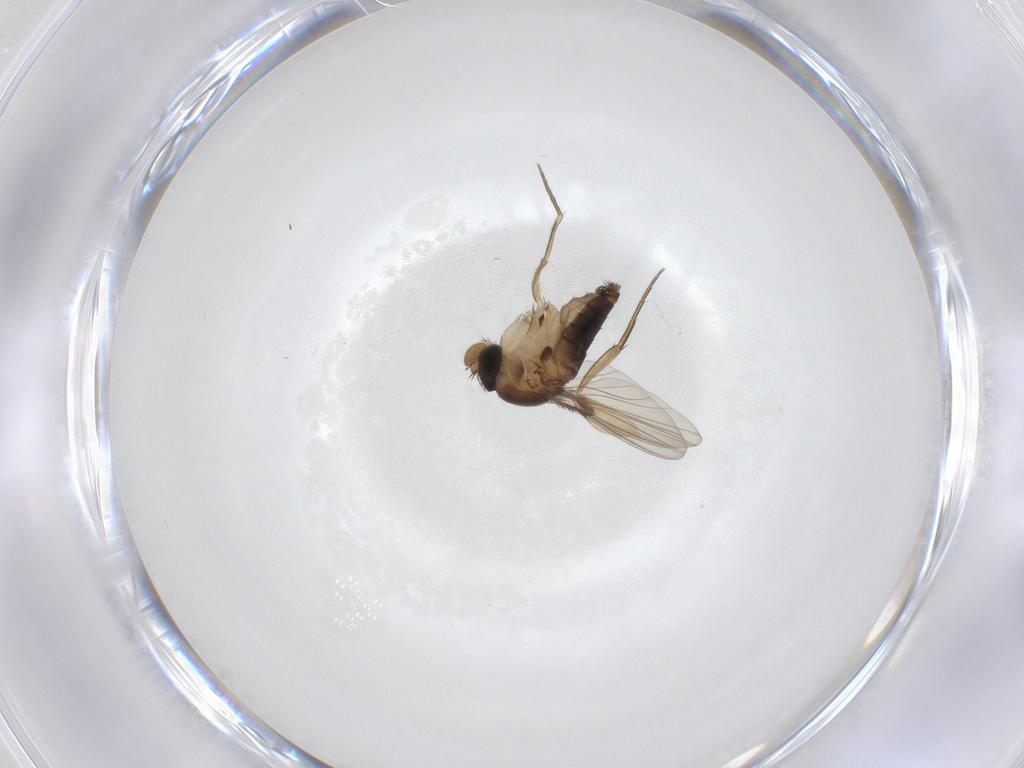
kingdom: Animalia
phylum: Arthropoda
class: Insecta
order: Diptera
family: Phoridae
